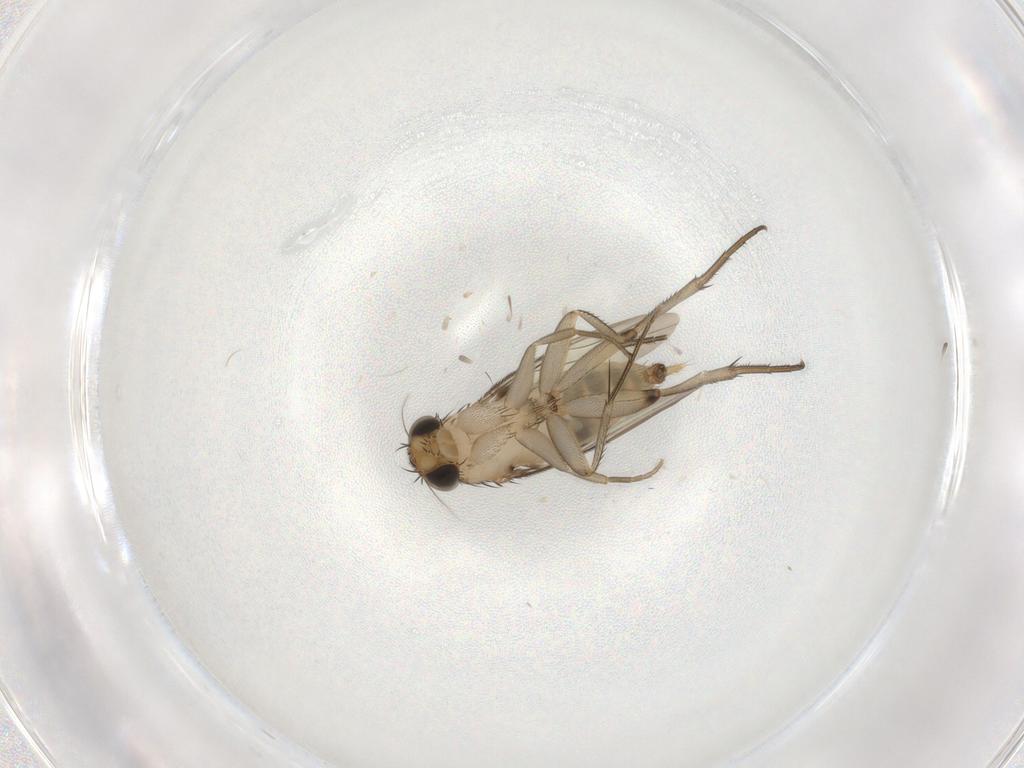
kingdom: Animalia
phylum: Arthropoda
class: Insecta
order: Diptera
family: Phoridae
